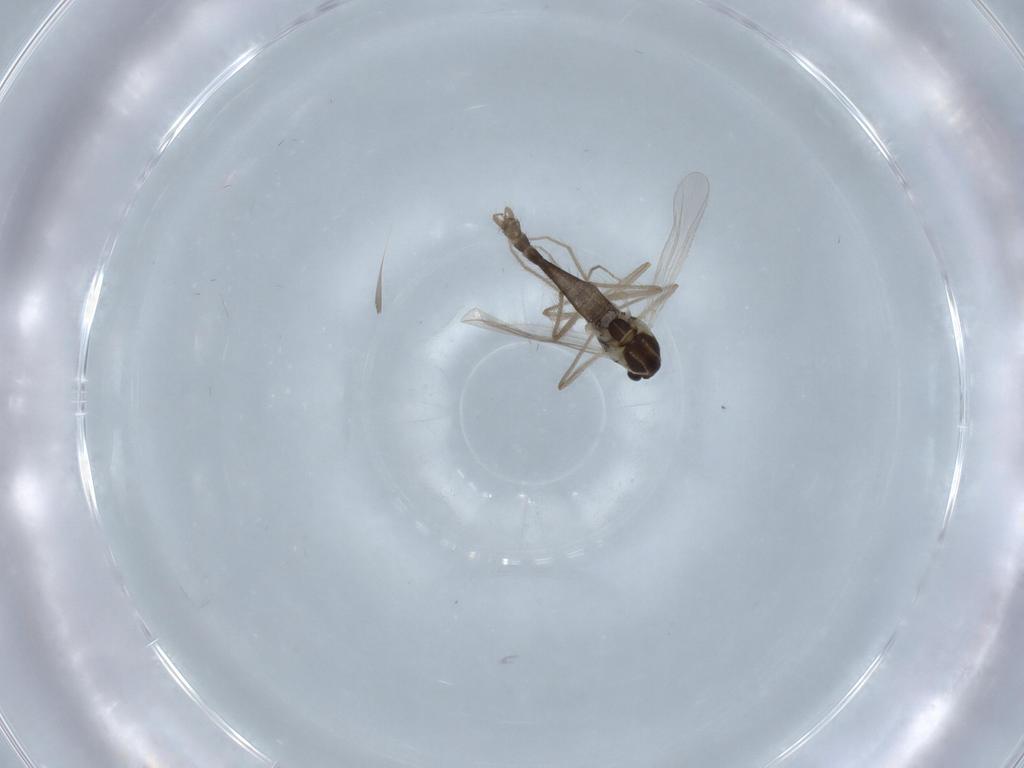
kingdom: Animalia
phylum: Arthropoda
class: Insecta
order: Diptera
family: Chironomidae
